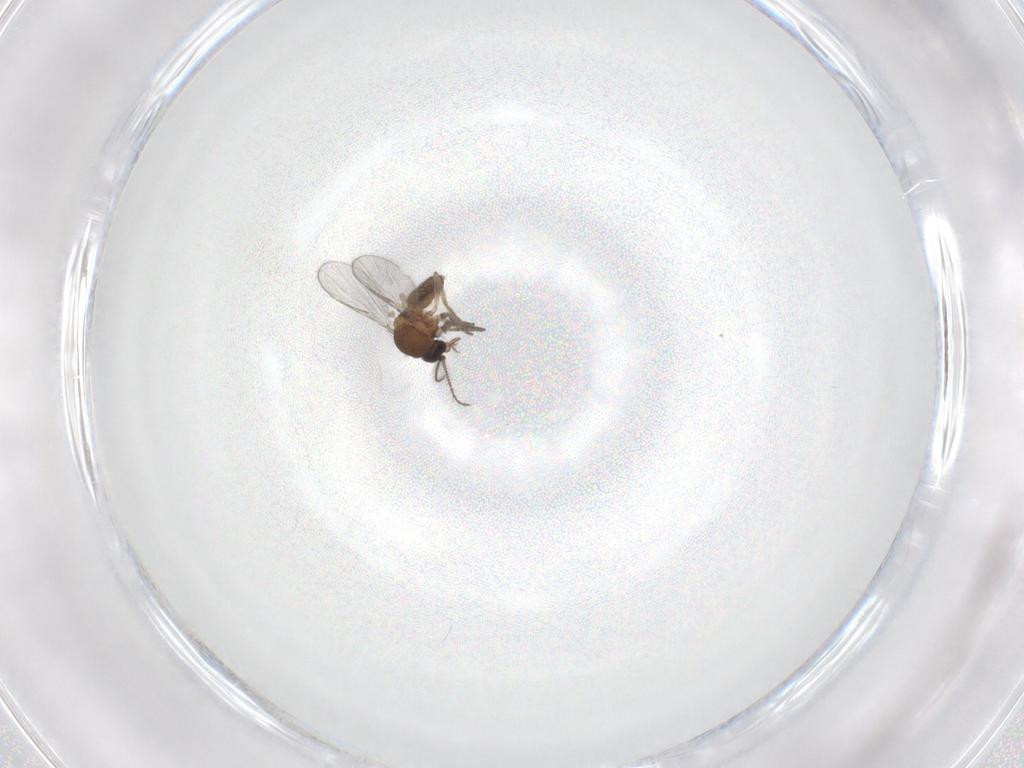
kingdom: Animalia
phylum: Arthropoda
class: Insecta
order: Diptera
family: Ceratopogonidae
